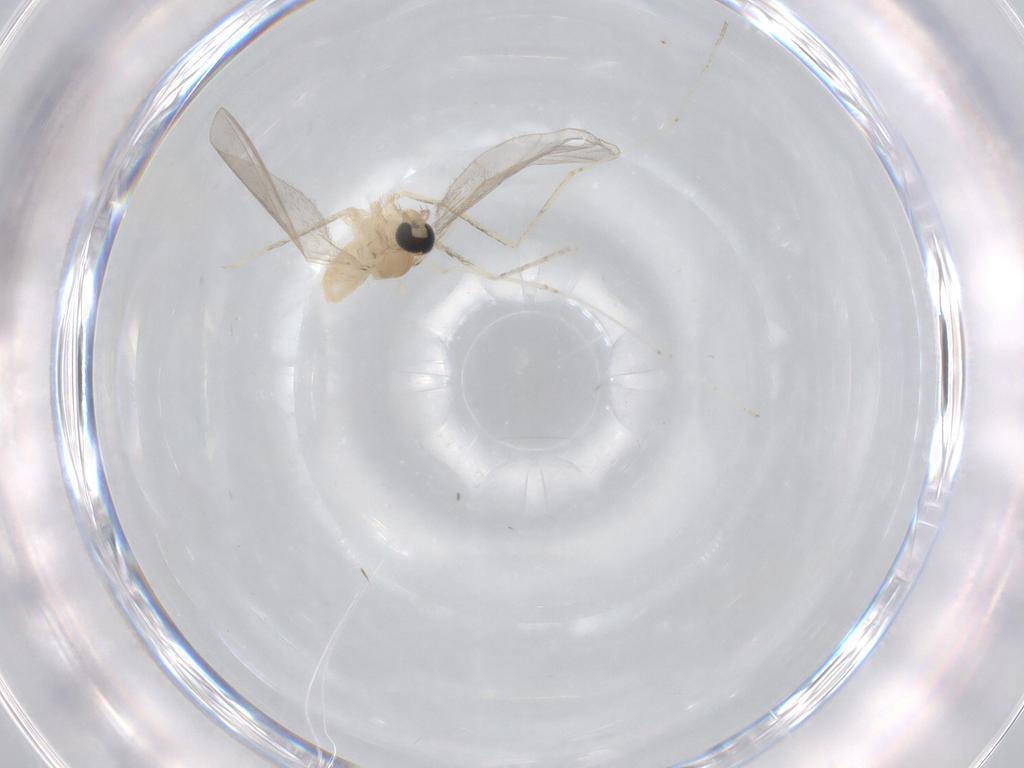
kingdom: Animalia
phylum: Arthropoda
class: Insecta
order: Diptera
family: Cecidomyiidae
